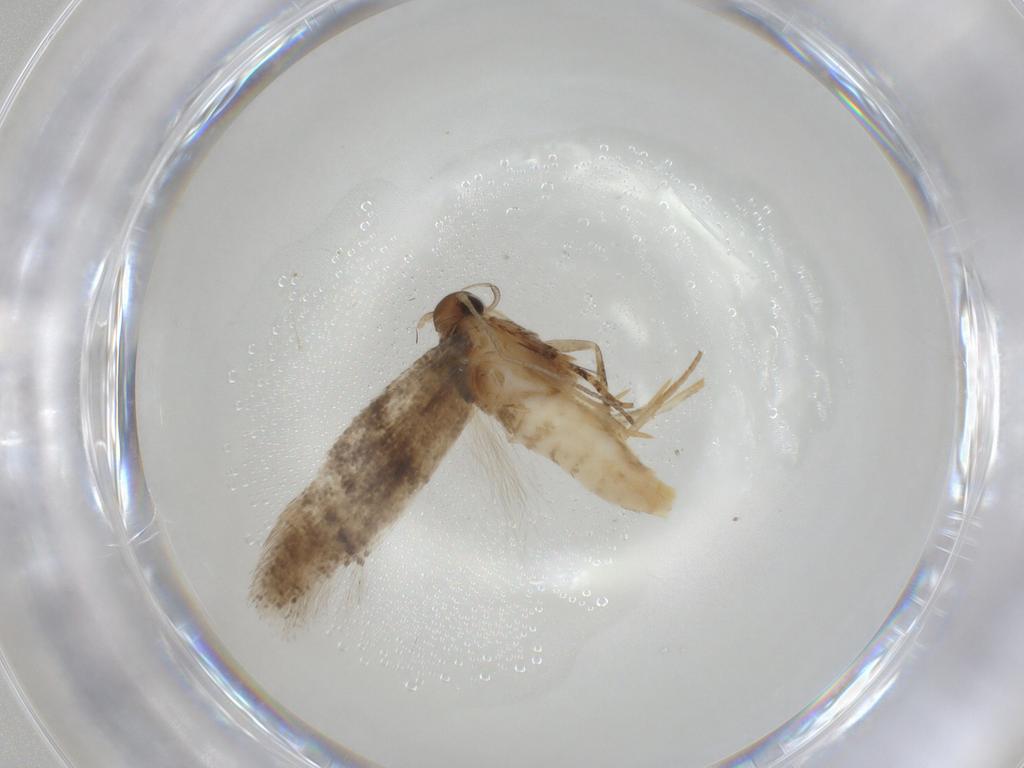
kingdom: Animalia
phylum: Arthropoda
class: Insecta
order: Lepidoptera
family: Gelechiidae
